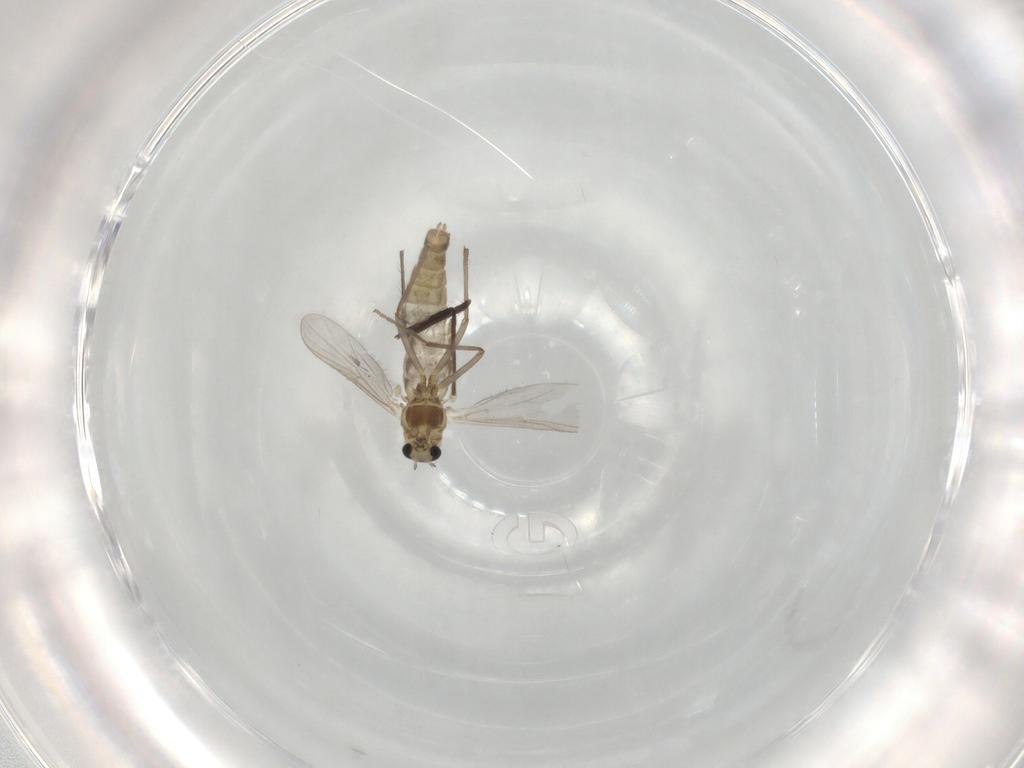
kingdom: Animalia
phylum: Arthropoda
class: Insecta
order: Diptera
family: Chironomidae
